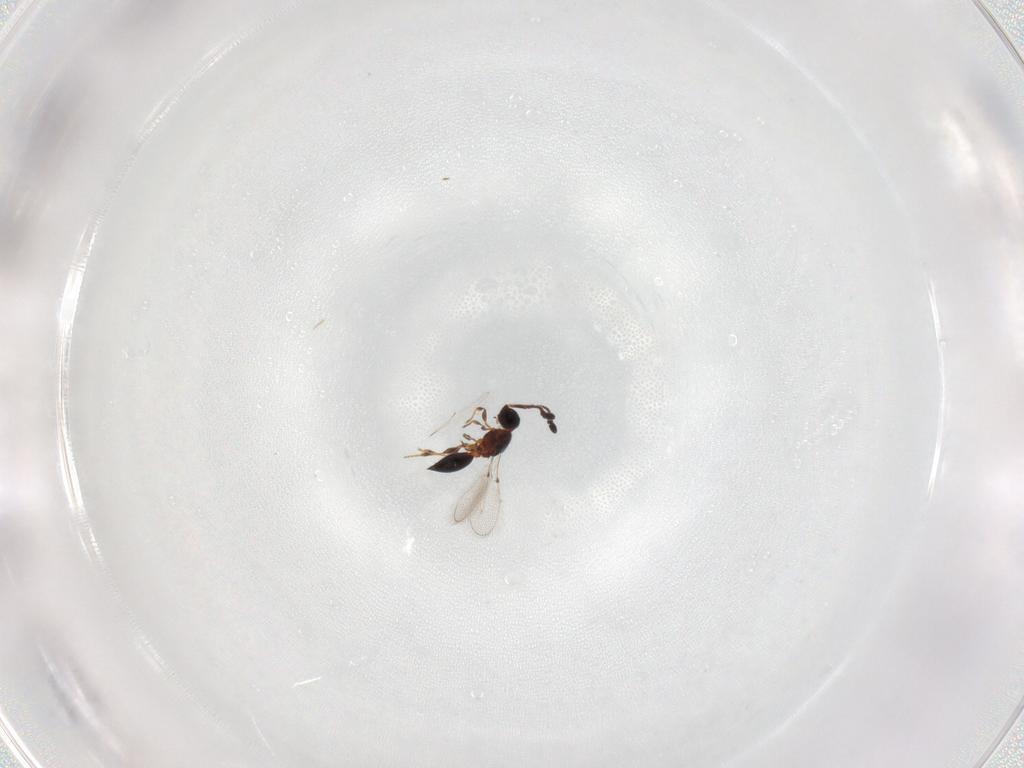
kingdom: Animalia
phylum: Arthropoda
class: Insecta
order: Hymenoptera
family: Diapriidae
